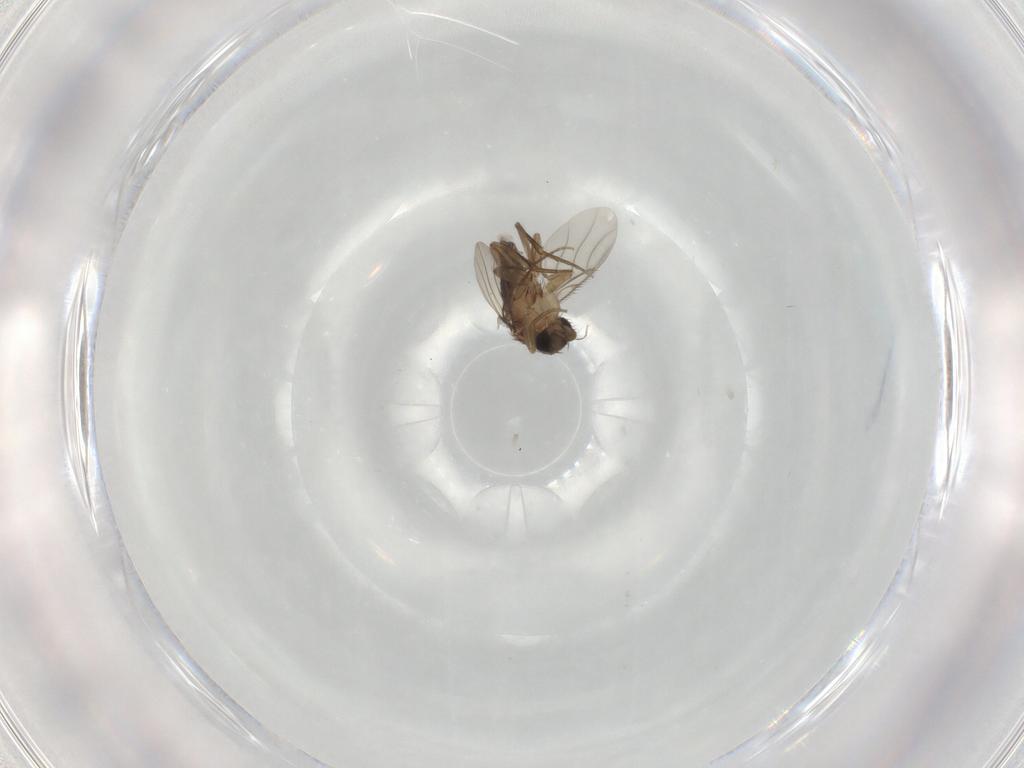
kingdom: Animalia
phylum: Arthropoda
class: Insecta
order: Diptera
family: Phoridae
